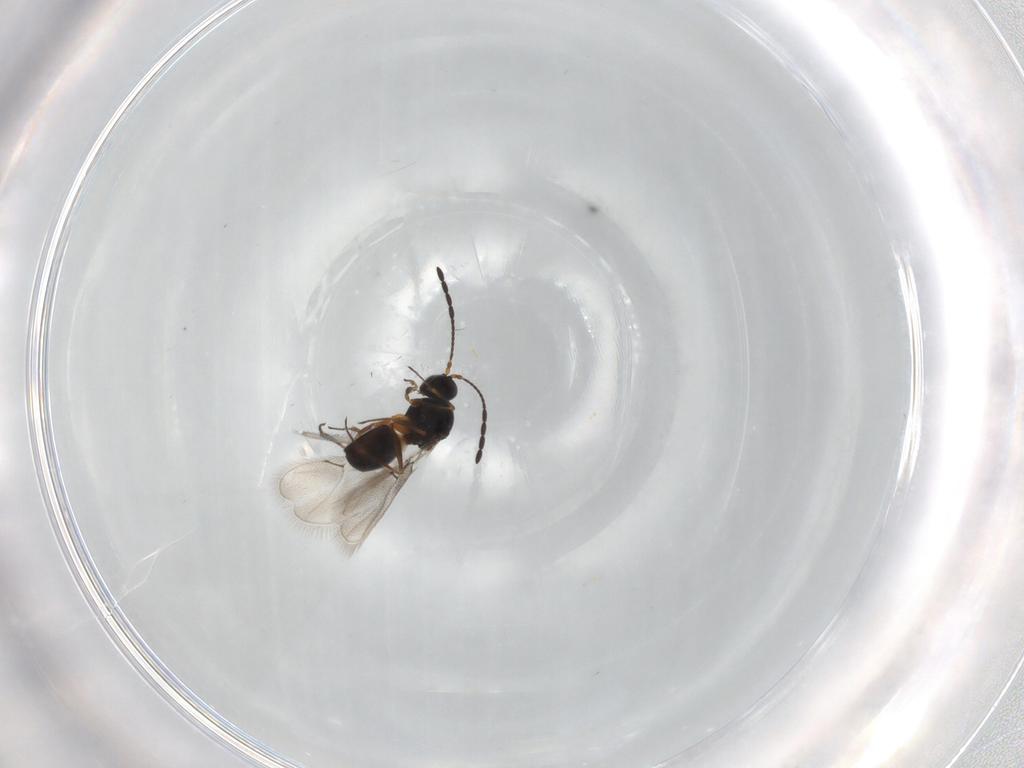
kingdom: Animalia
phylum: Arthropoda
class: Insecta
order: Hymenoptera
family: Figitidae
